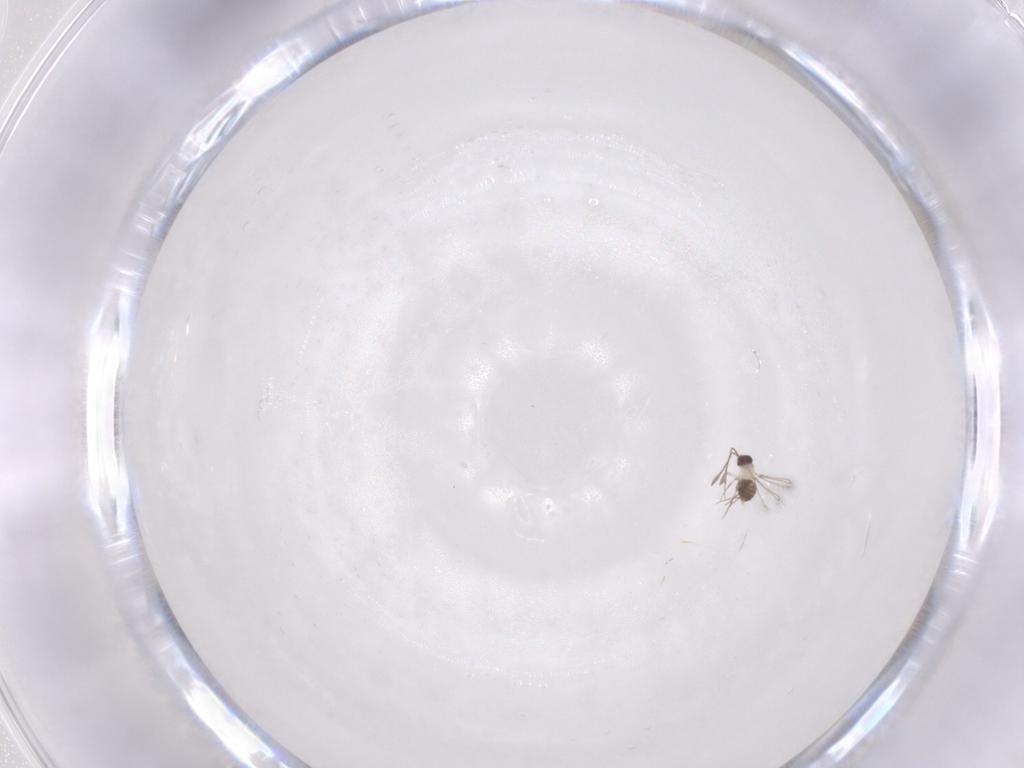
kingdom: Animalia
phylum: Arthropoda
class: Insecta
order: Hymenoptera
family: Mymaridae
